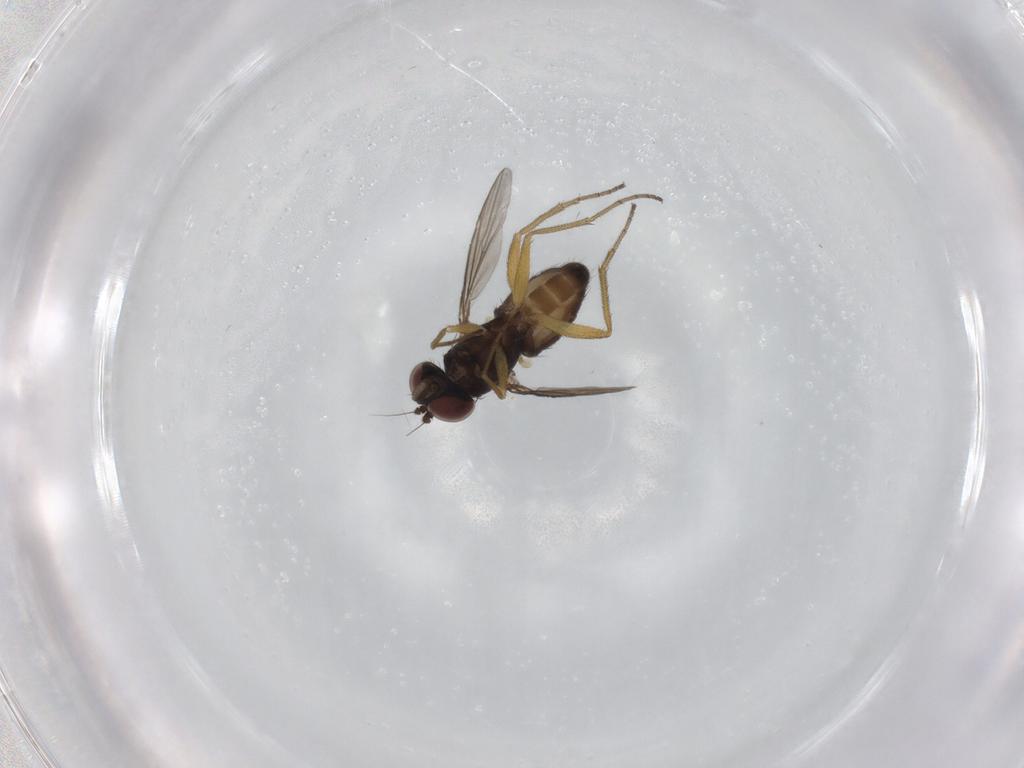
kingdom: Animalia
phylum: Arthropoda
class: Insecta
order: Diptera
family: Dolichopodidae
